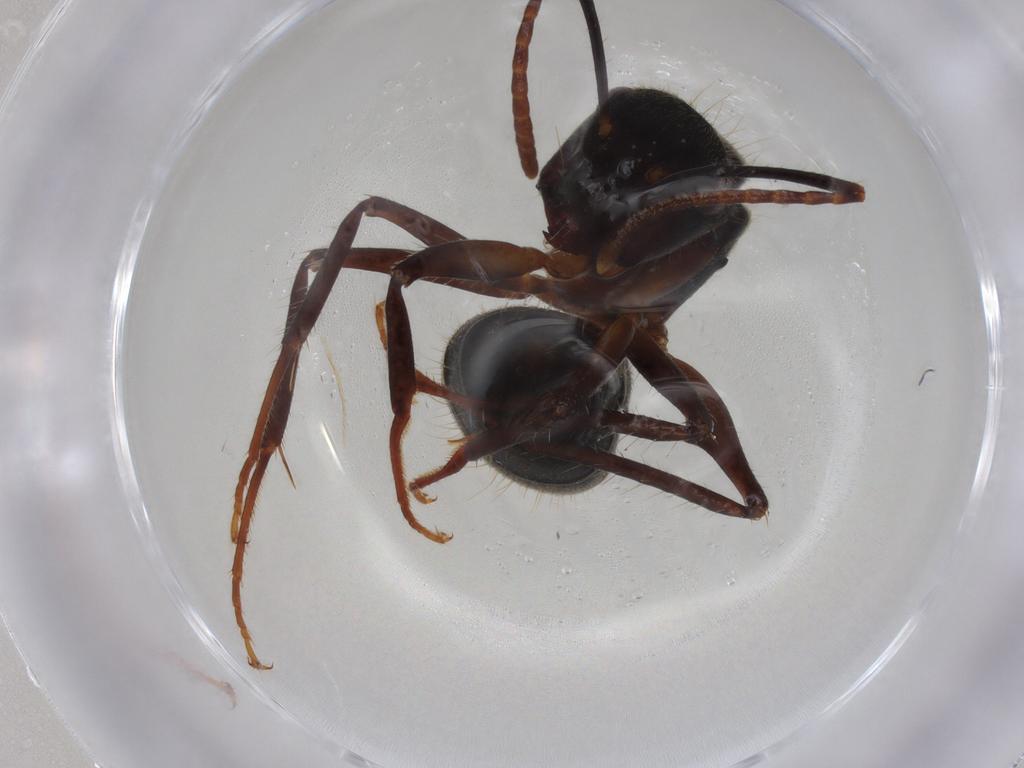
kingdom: Animalia
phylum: Arthropoda
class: Insecta
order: Hymenoptera
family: Formicidae
